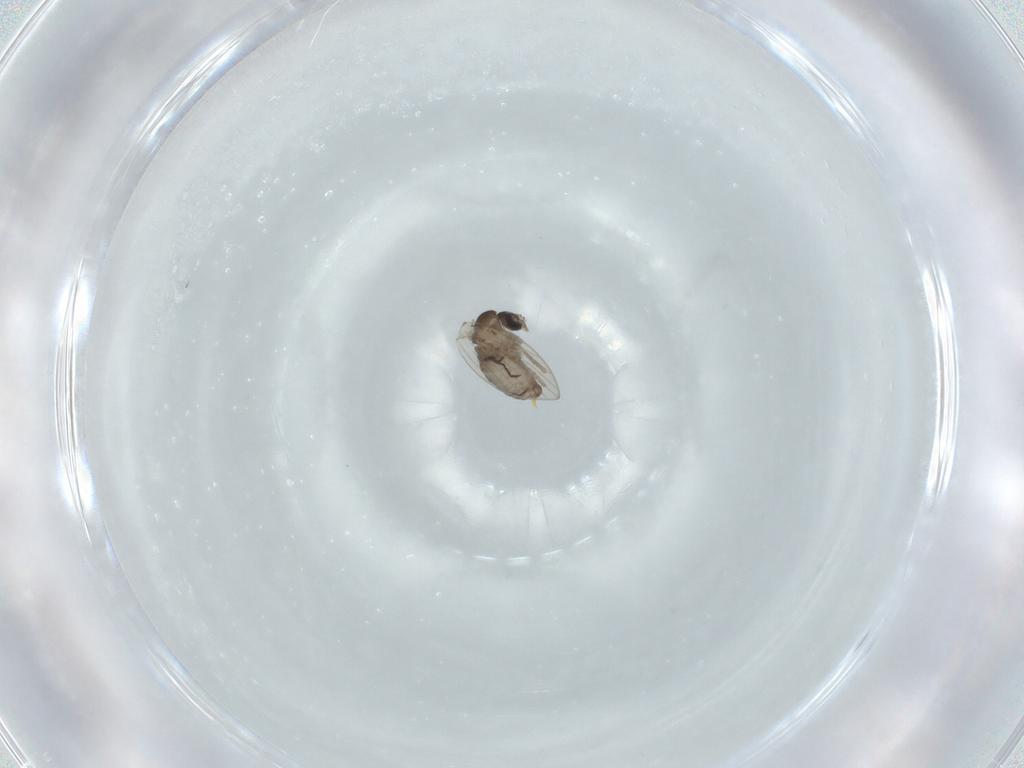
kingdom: Animalia
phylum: Arthropoda
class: Insecta
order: Diptera
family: Psychodidae
